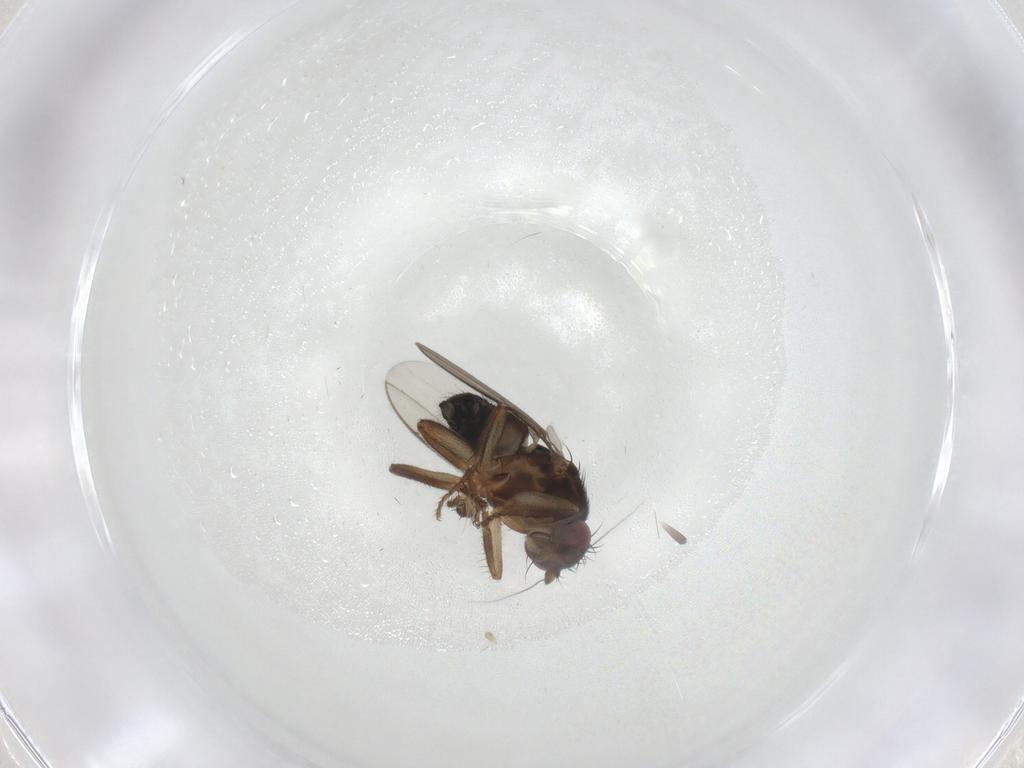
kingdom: Animalia
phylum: Arthropoda
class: Insecta
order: Diptera
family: Sphaeroceridae
